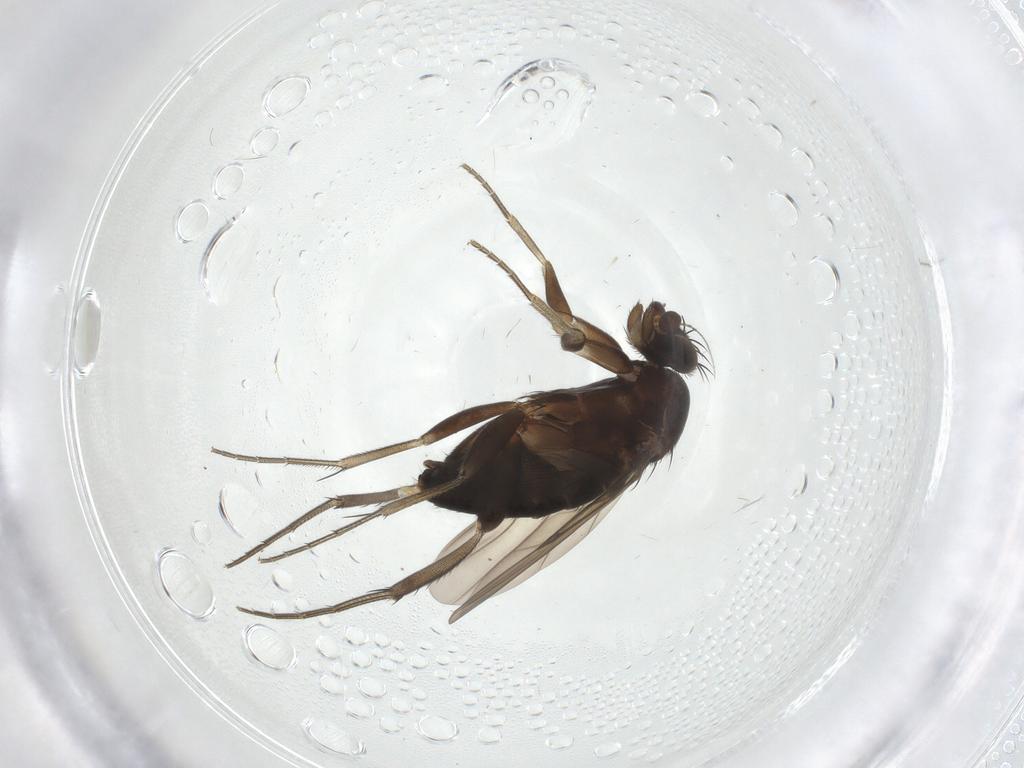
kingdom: Animalia
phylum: Arthropoda
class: Insecta
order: Diptera
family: Phoridae
